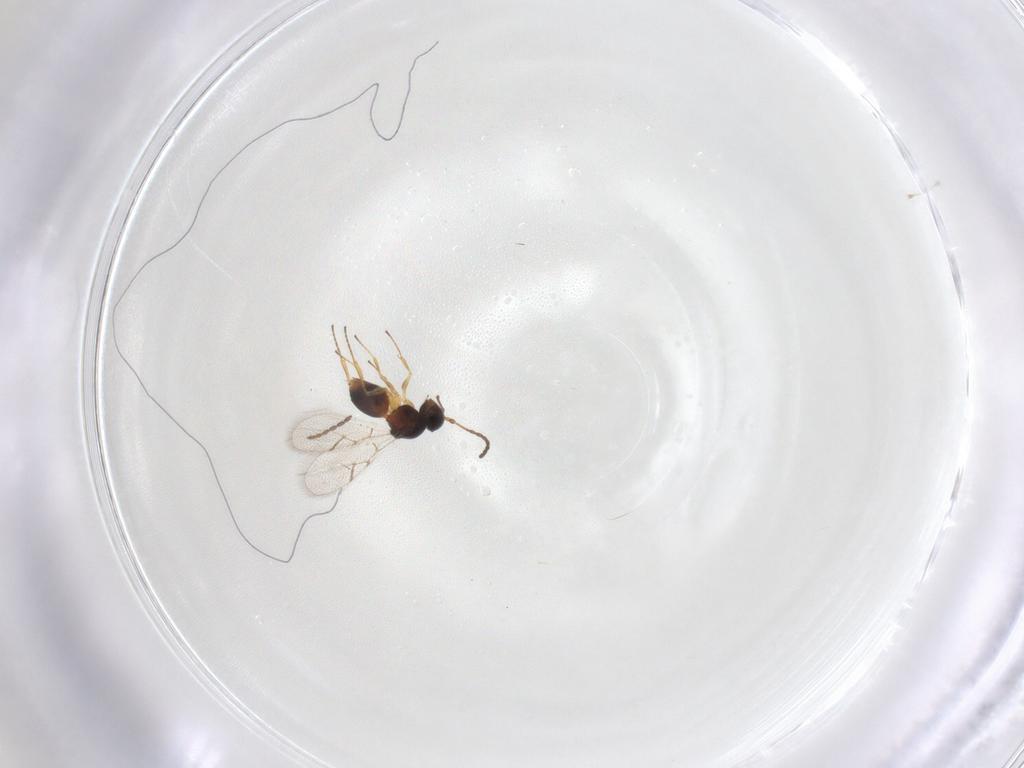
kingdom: Animalia
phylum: Arthropoda
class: Insecta
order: Hymenoptera
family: Figitidae
